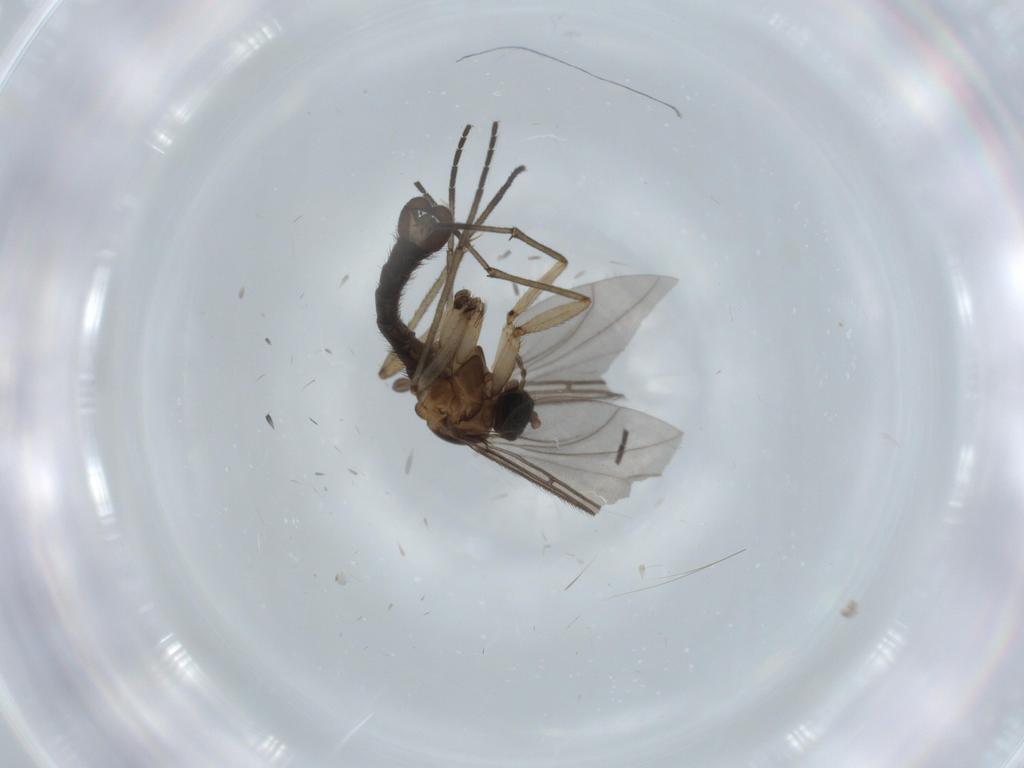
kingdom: Animalia
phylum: Arthropoda
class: Insecta
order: Diptera
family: Sciaridae
